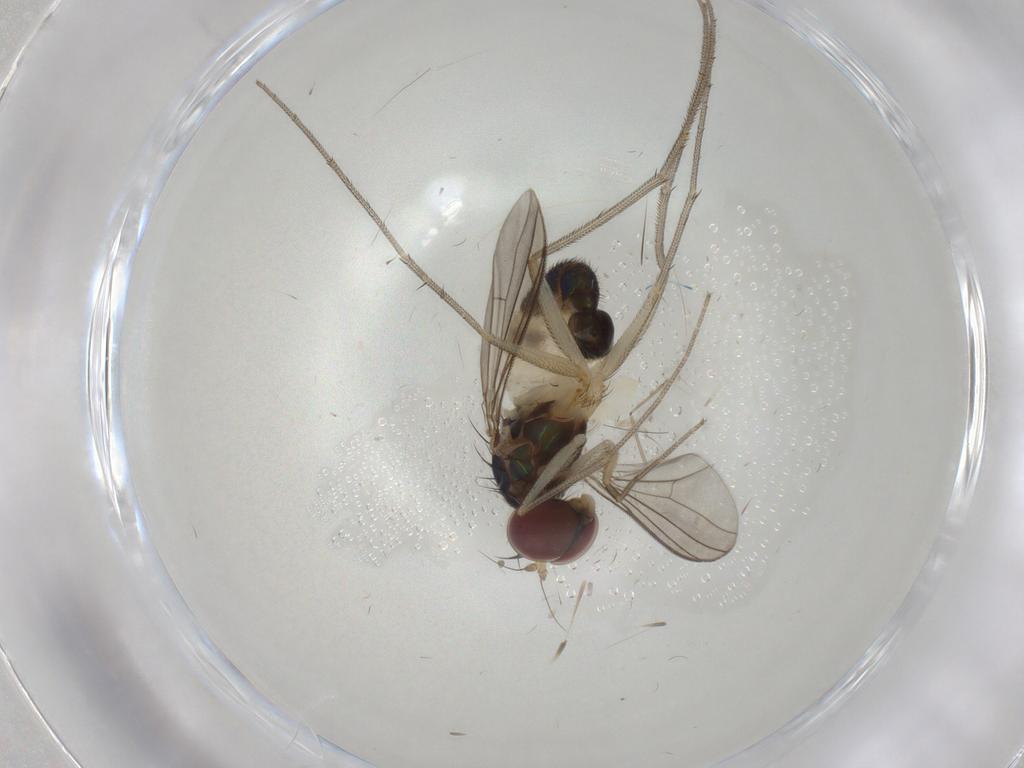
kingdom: Animalia
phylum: Arthropoda
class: Insecta
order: Diptera
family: Dolichopodidae
